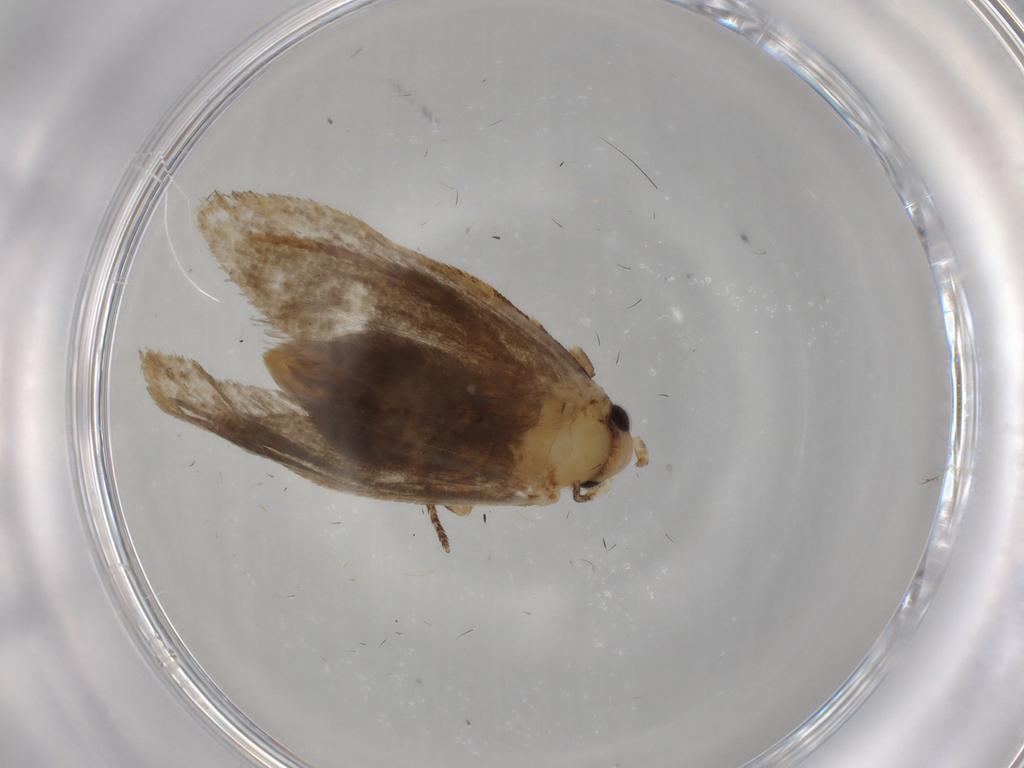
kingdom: Animalia
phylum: Arthropoda
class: Insecta
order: Lepidoptera
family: Tineidae
